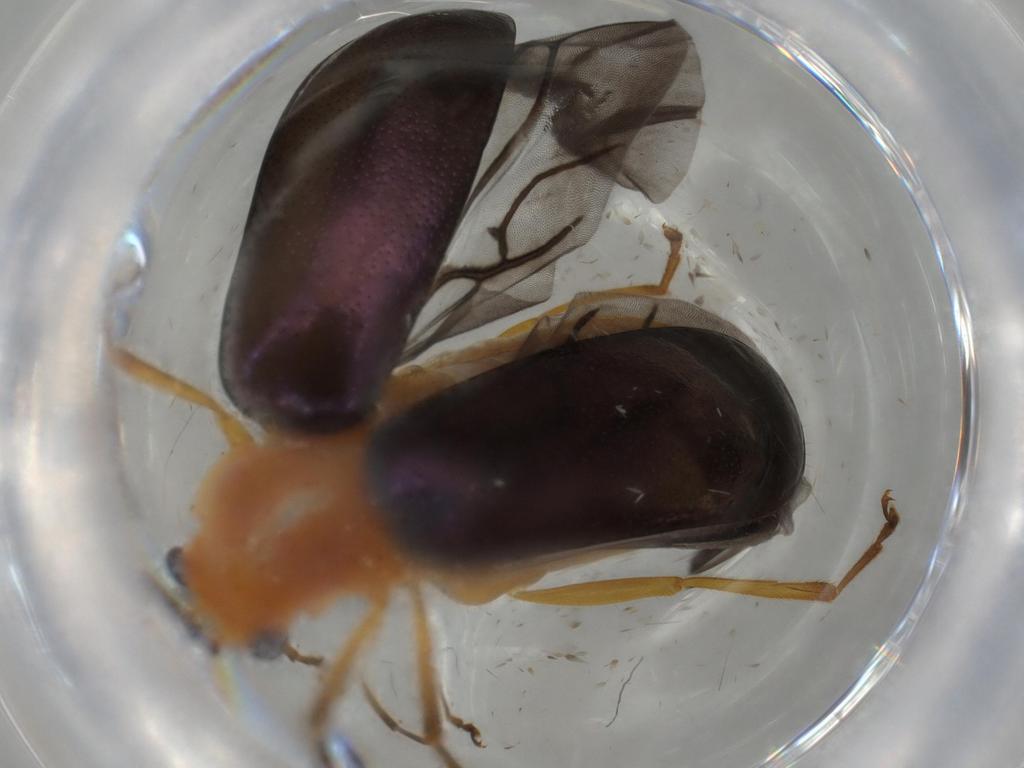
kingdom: Animalia
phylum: Arthropoda
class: Insecta
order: Coleoptera
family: Chrysomelidae
